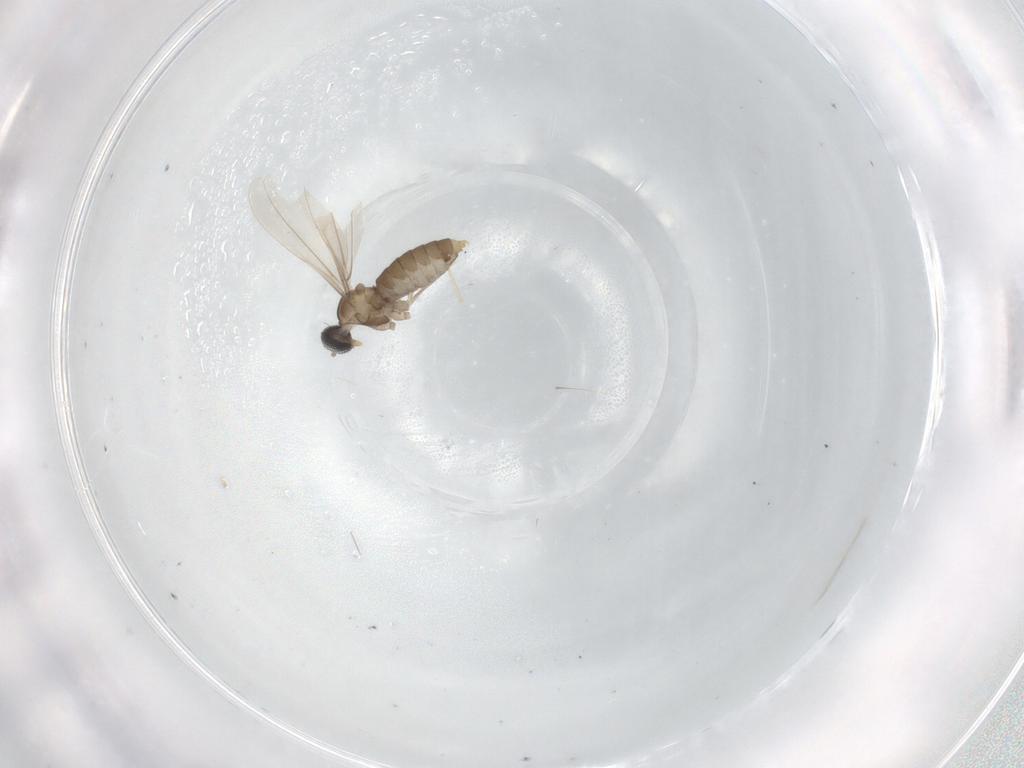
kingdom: Animalia
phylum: Arthropoda
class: Insecta
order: Diptera
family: Cecidomyiidae
